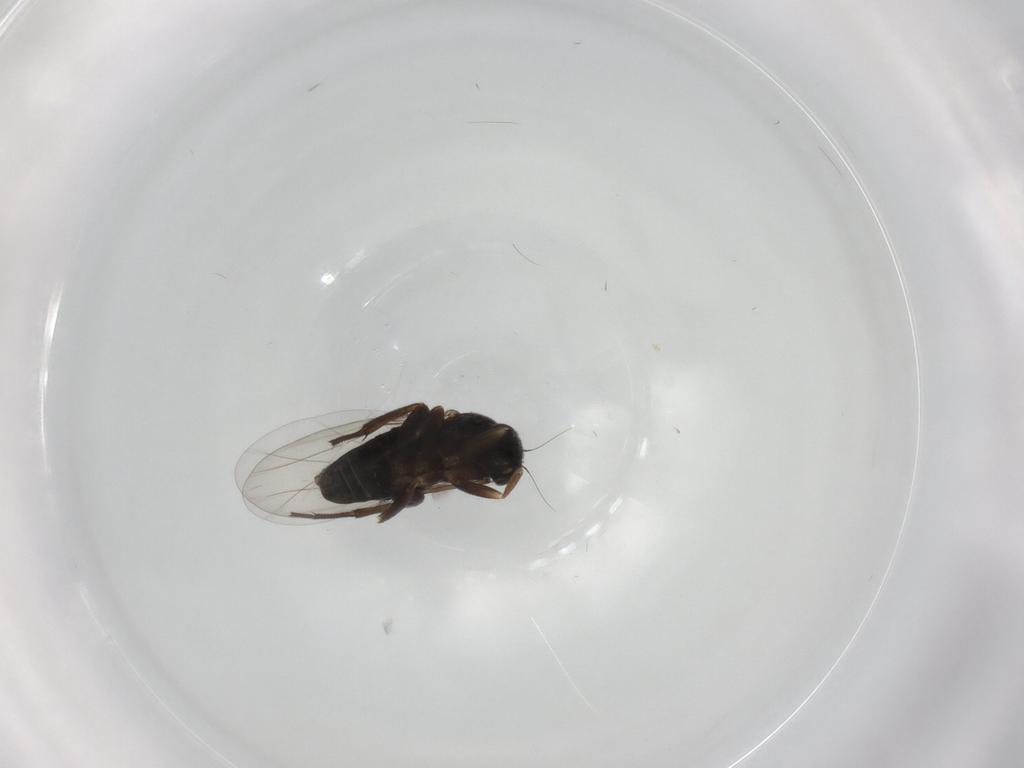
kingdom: Animalia
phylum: Arthropoda
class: Insecta
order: Diptera
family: Phoridae
